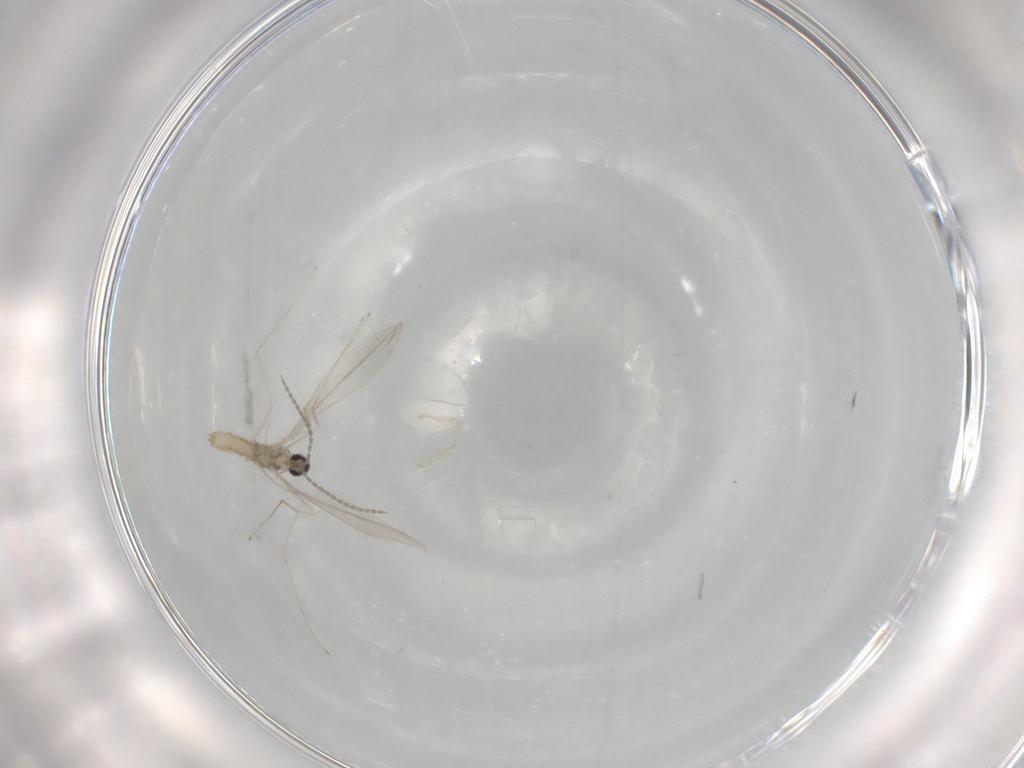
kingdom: Animalia
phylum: Arthropoda
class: Insecta
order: Diptera
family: Cecidomyiidae
